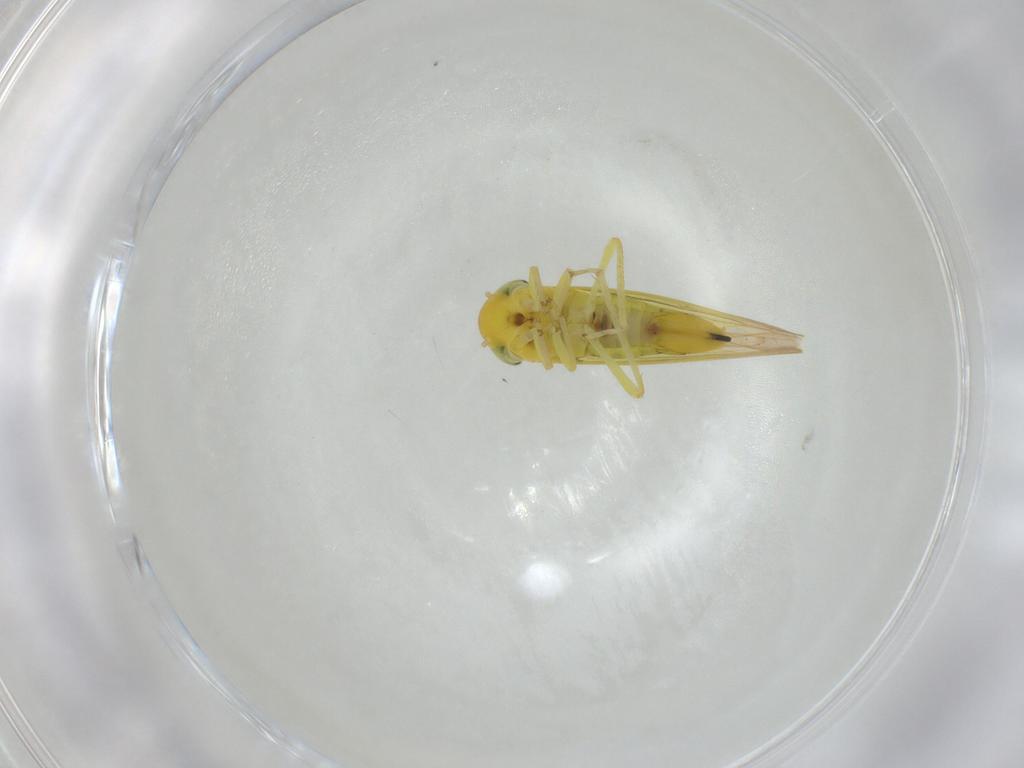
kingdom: Animalia
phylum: Arthropoda
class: Insecta
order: Hemiptera
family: Cicadellidae
